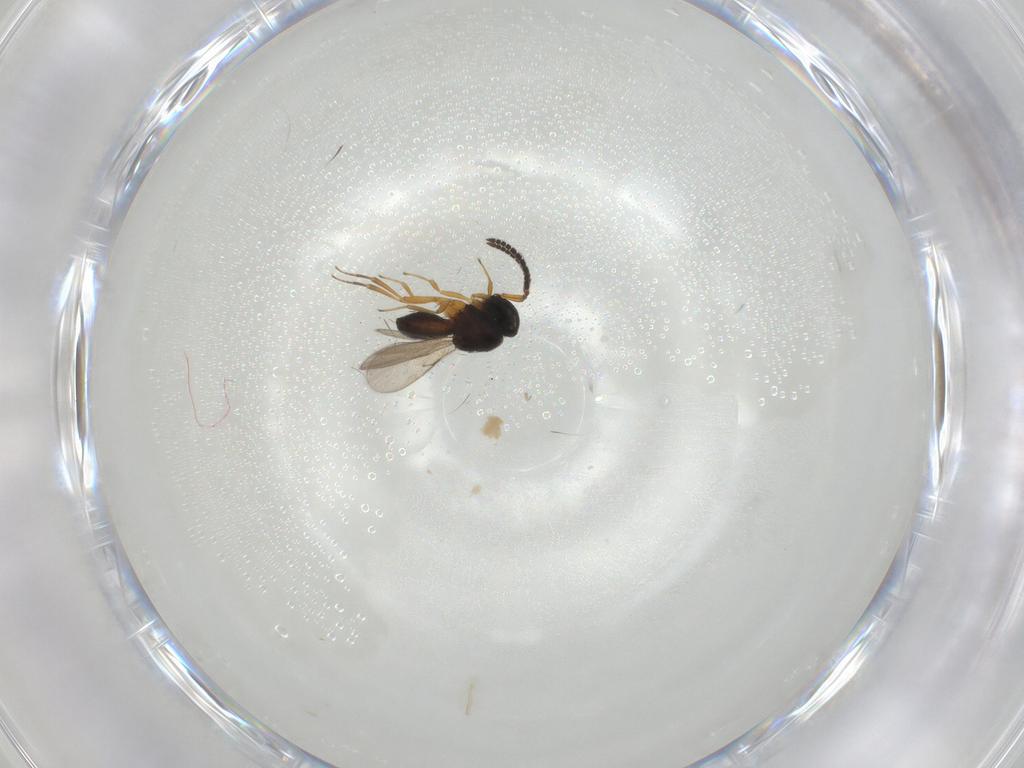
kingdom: Animalia
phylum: Arthropoda
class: Insecta
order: Hymenoptera
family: Scelionidae
